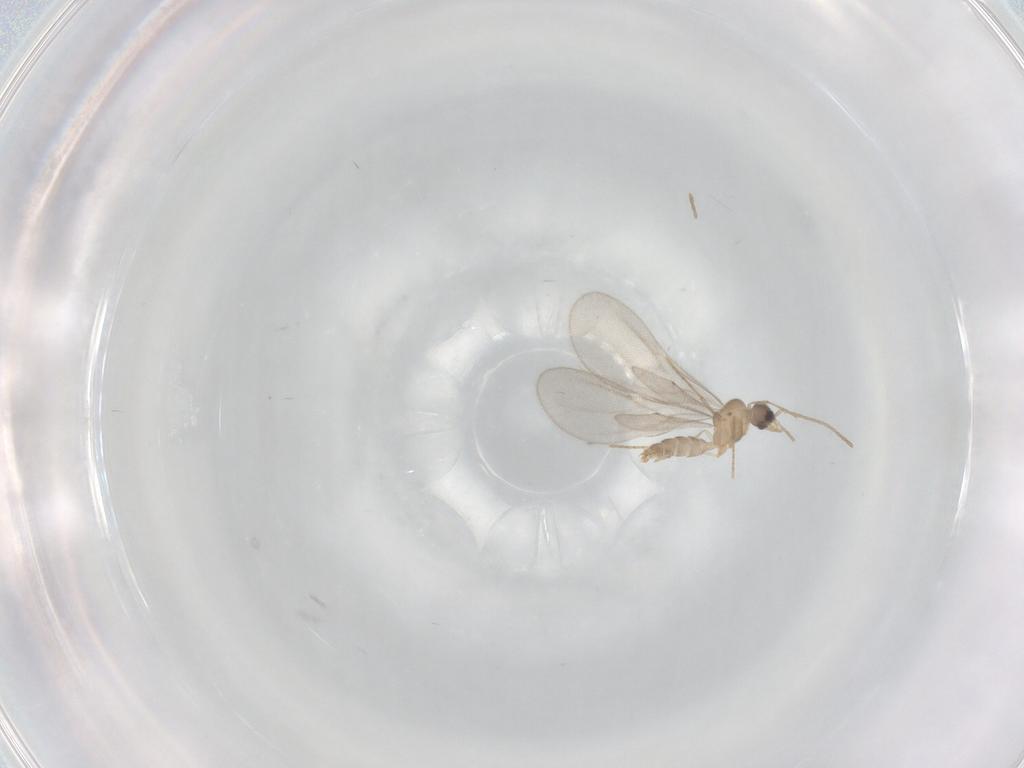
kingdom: Animalia
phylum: Arthropoda
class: Insecta
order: Hymenoptera
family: Formicidae
